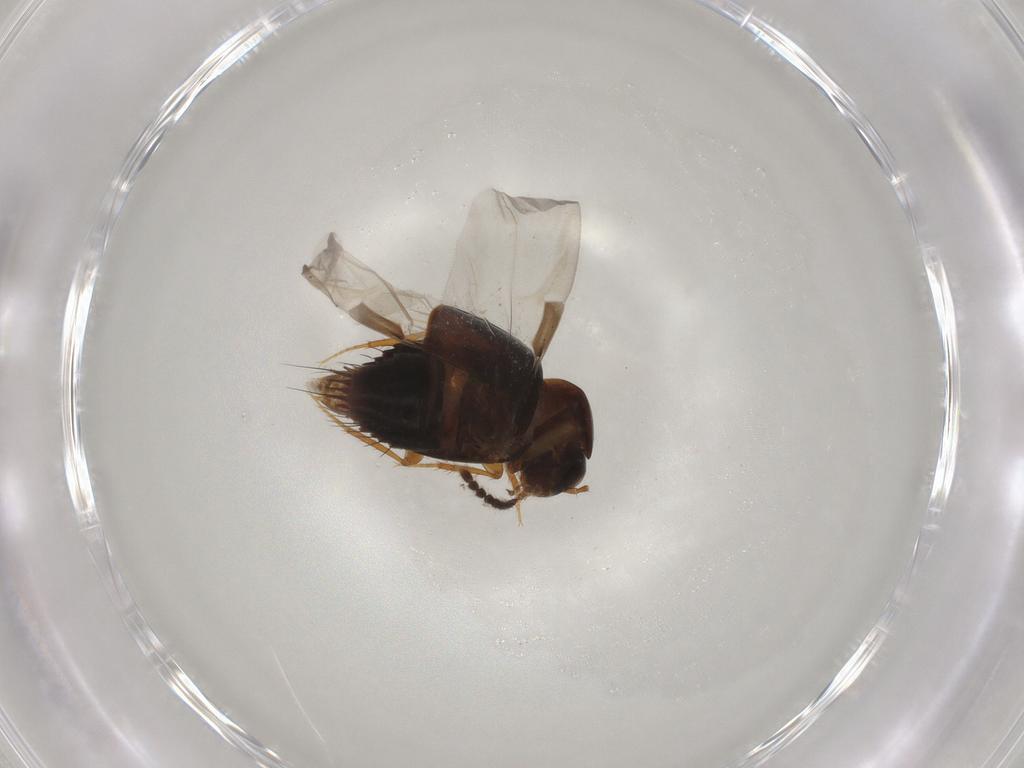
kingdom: Animalia
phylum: Arthropoda
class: Insecta
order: Coleoptera
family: Staphylinidae
